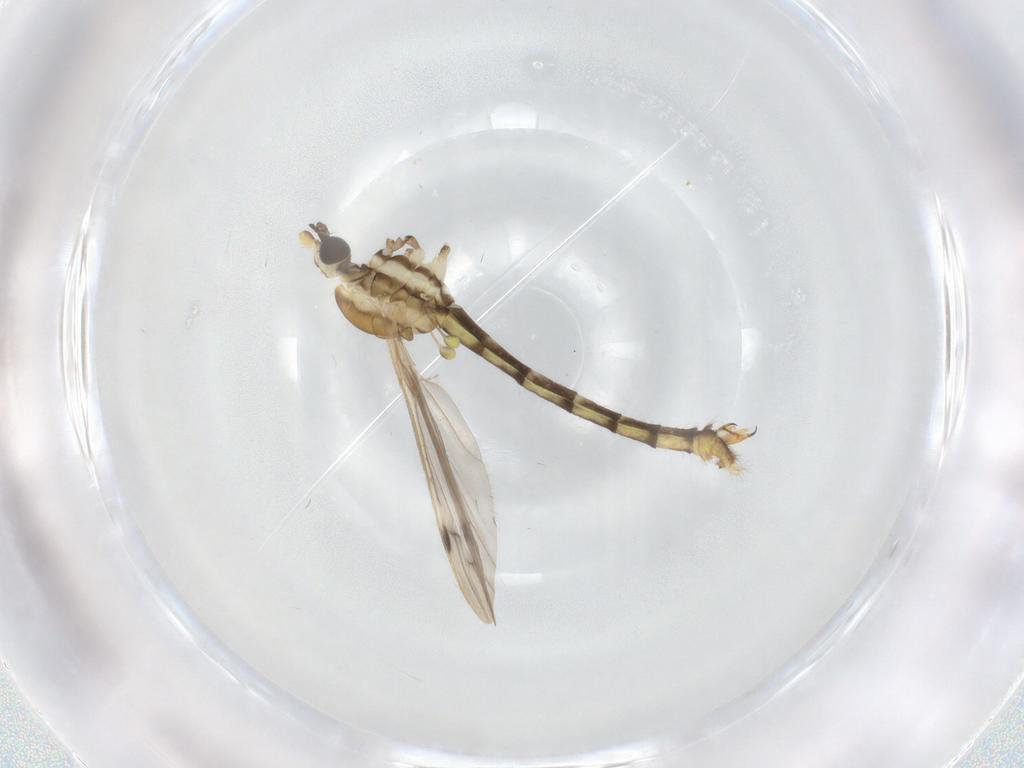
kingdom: Animalia
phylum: Arthropoda
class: Insecta
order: Diptera
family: Limoniidae
